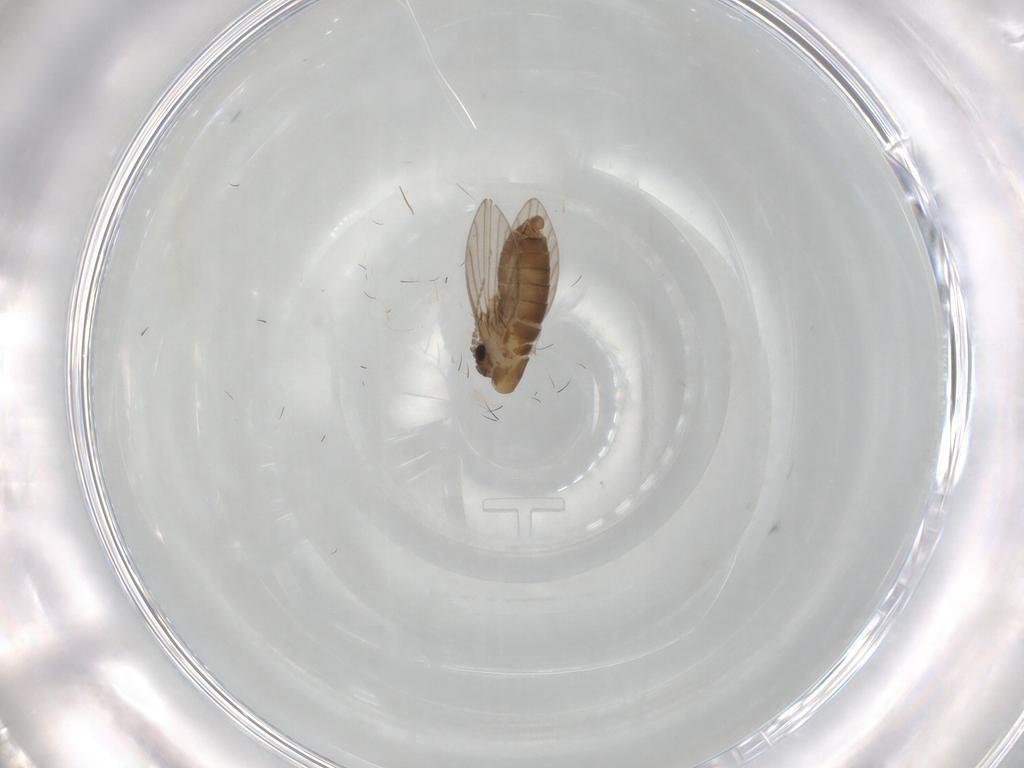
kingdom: Animalia
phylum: Arthropoda
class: Insecta
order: Diptera
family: Psychodidae
